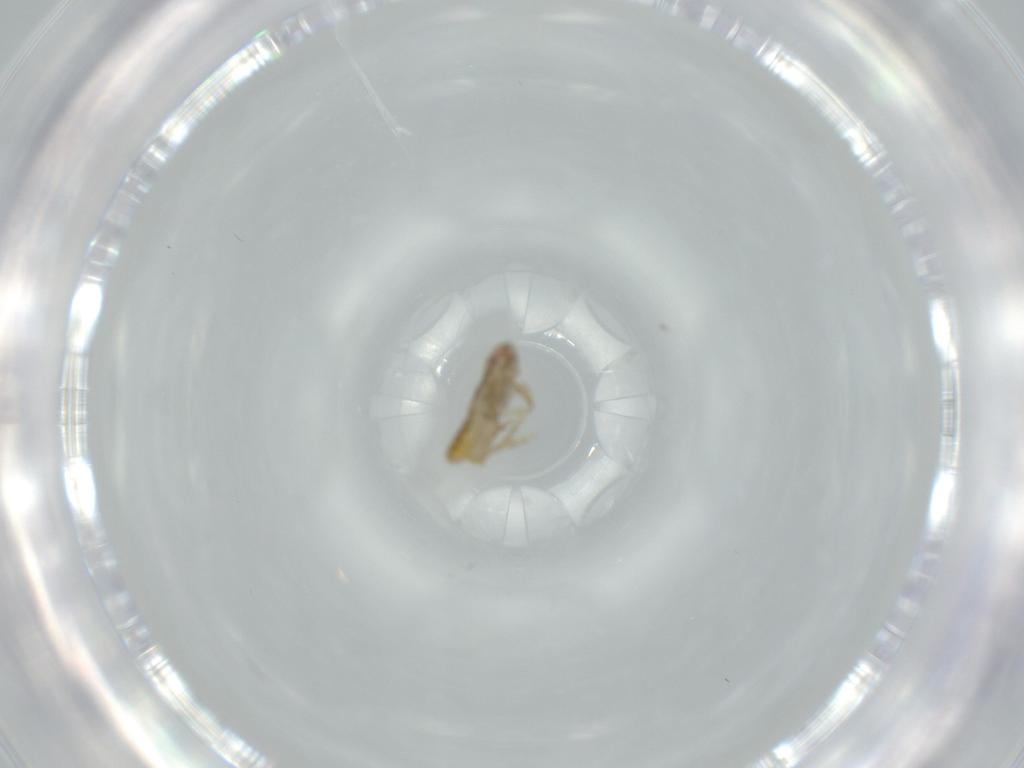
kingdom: Animalia
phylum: Arthropoda
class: Insecta
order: Hemiptera
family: Delphacidae
